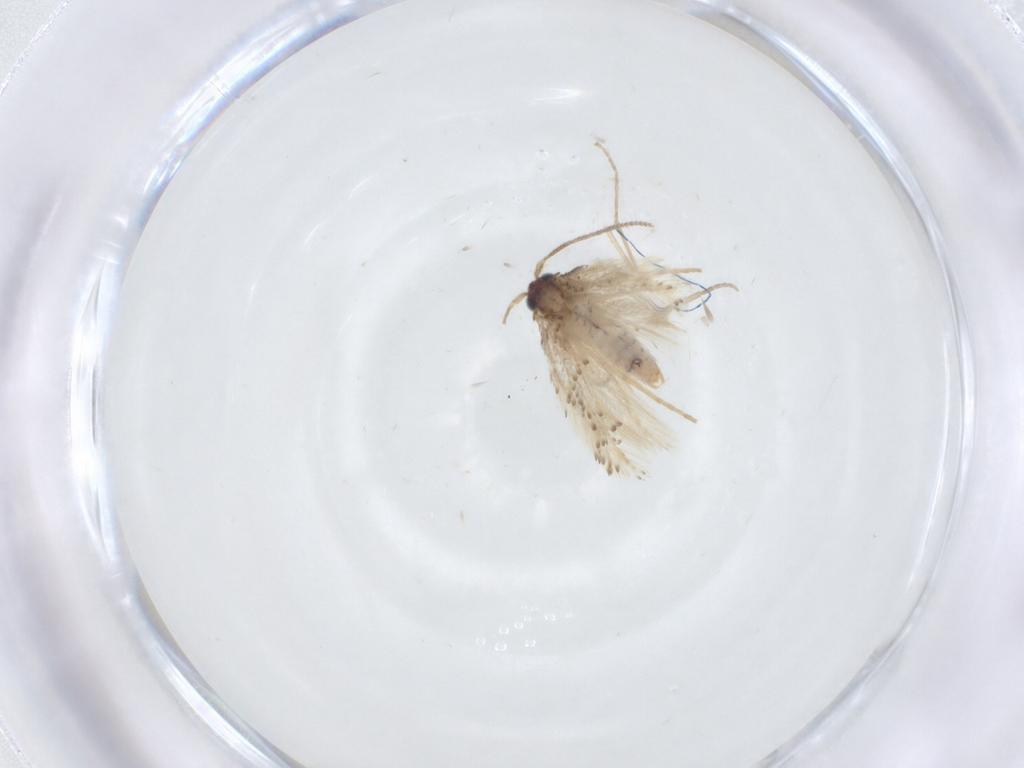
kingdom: Animalia
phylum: Arthropoda
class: Insecta
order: Lepidoptera
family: Nepticulidae
